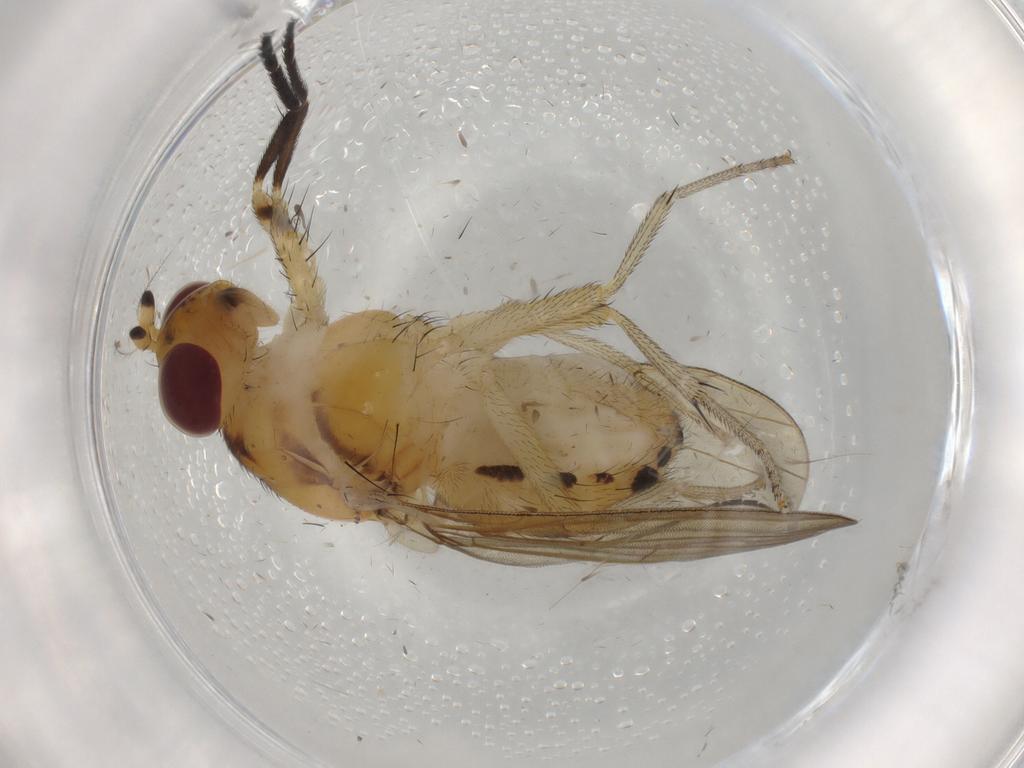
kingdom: Animalia
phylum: Arthropoda
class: Insecta
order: Diptera
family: Sciaridae
